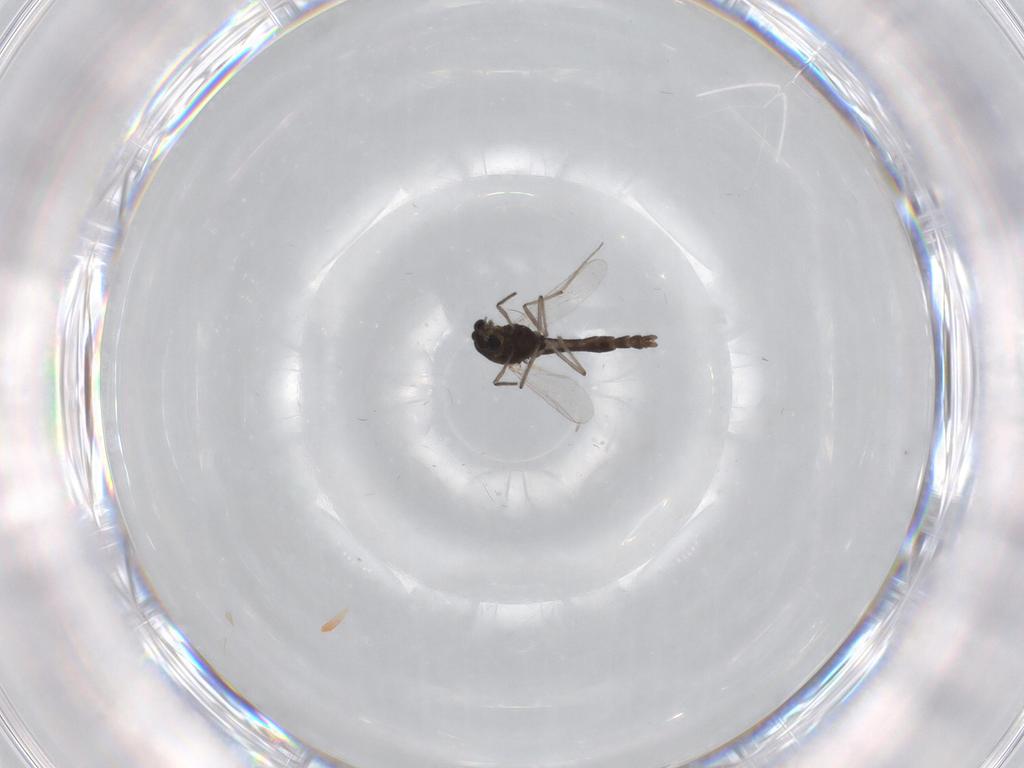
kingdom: Animalia
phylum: Arthropoda
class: Insecta
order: Diptera
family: Chironomidae
